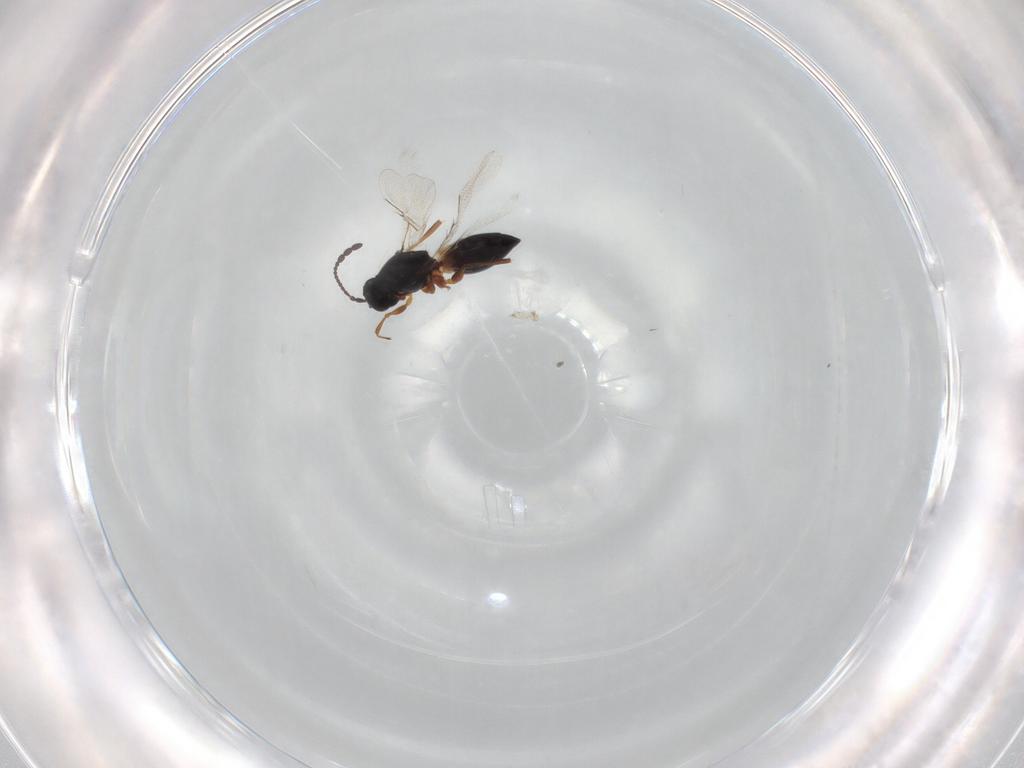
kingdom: Animalia
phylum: Arthropoda
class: Insecta
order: Hymenoptera
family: Figitidae
